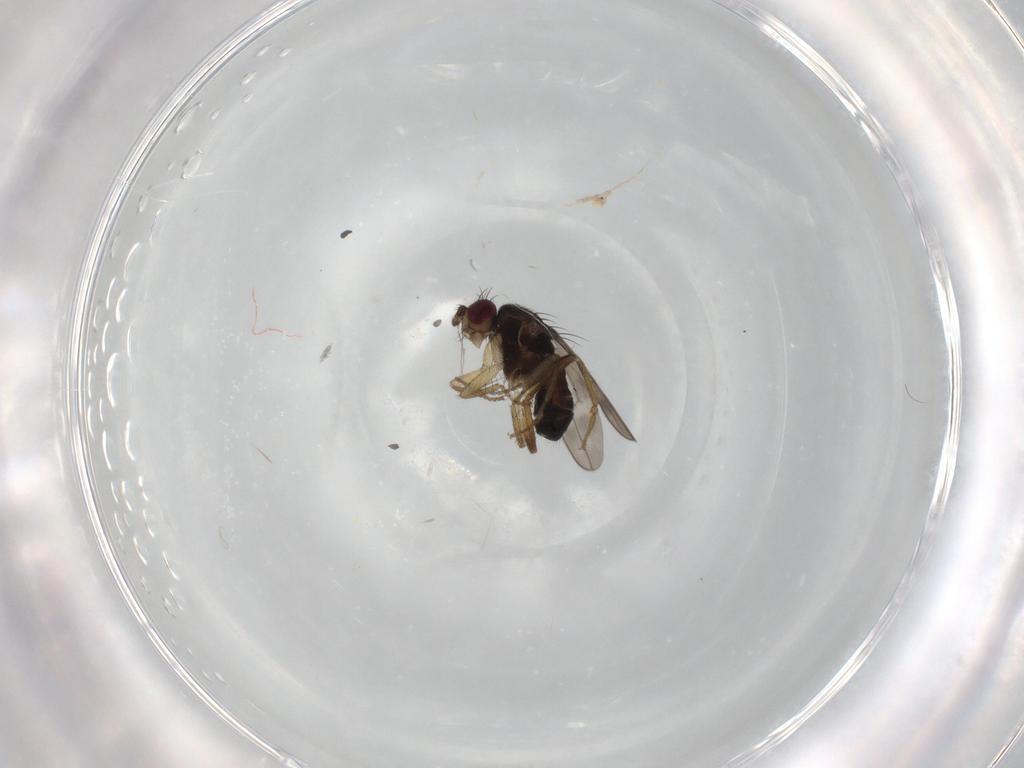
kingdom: Animalia
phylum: Arthropoda
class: Insecta
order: Diptera
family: Sphaeroceridae
